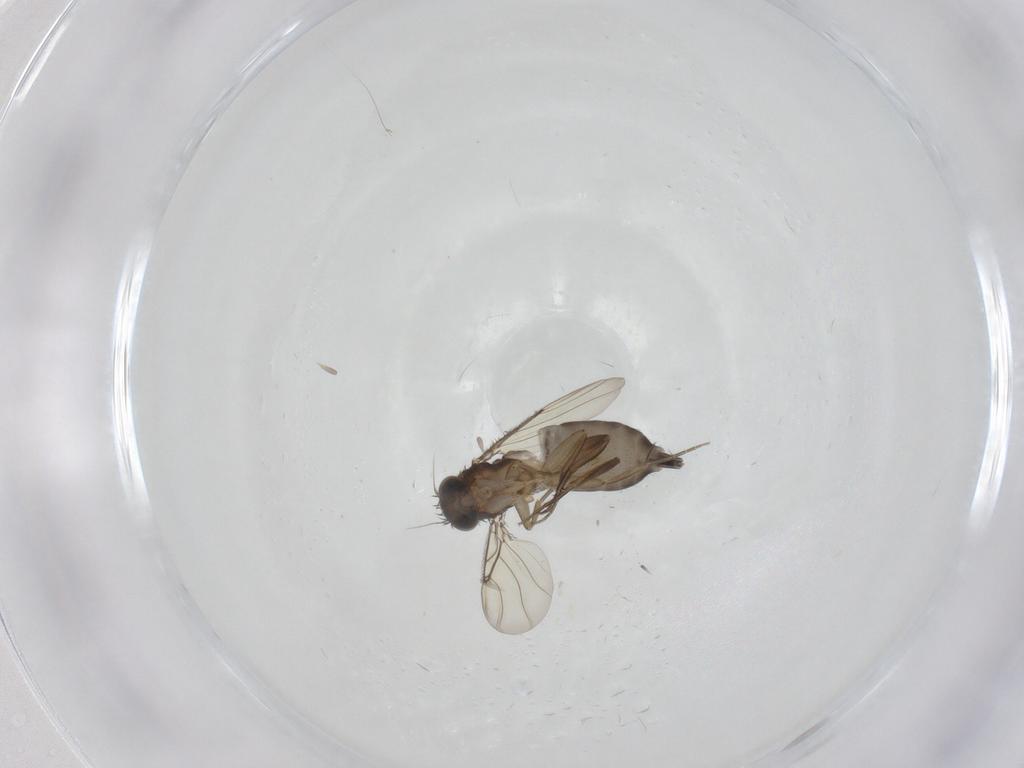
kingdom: Animalia
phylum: Arthropoda
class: Insecta
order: Diptera
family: Phoridae
